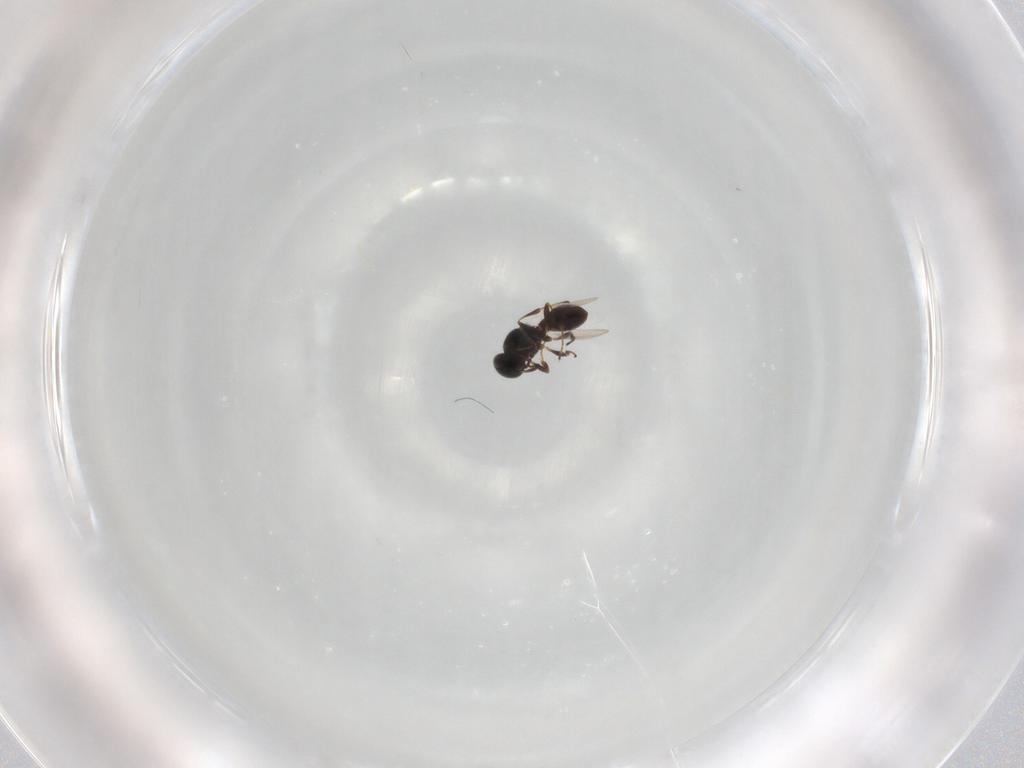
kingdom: Animalia
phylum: Arthropoda
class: Insecta
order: Hymenoptera
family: Platygastridae
